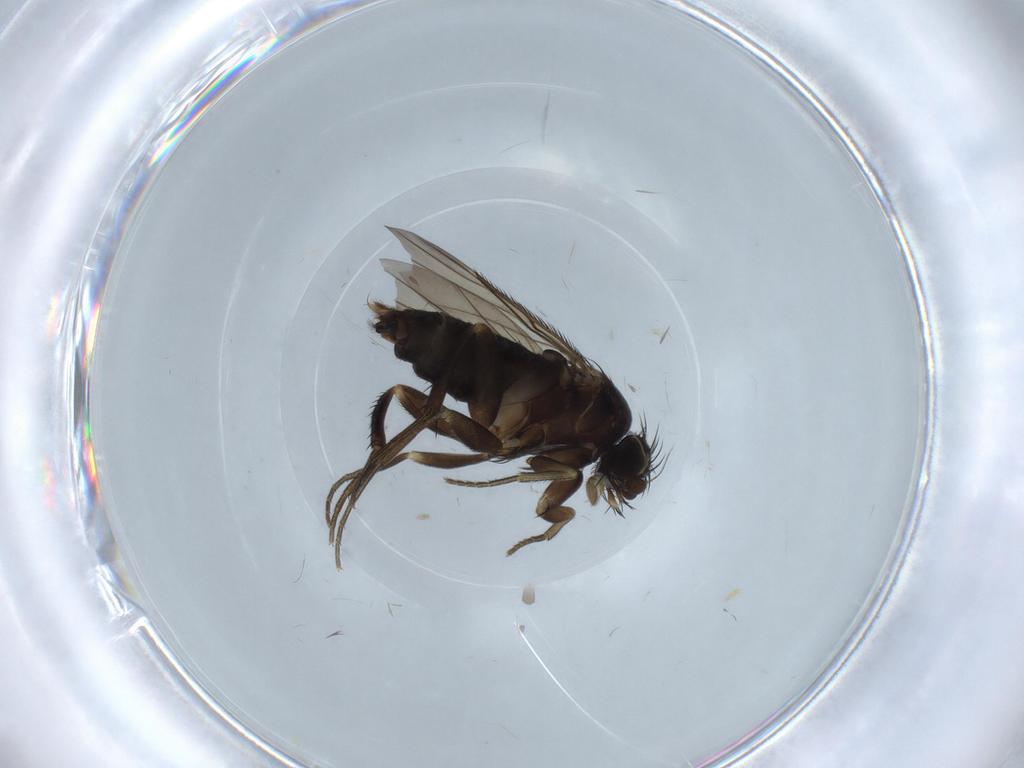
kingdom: Animalia
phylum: Arthropoda
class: Insecta
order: Diptera
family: Phoridae
